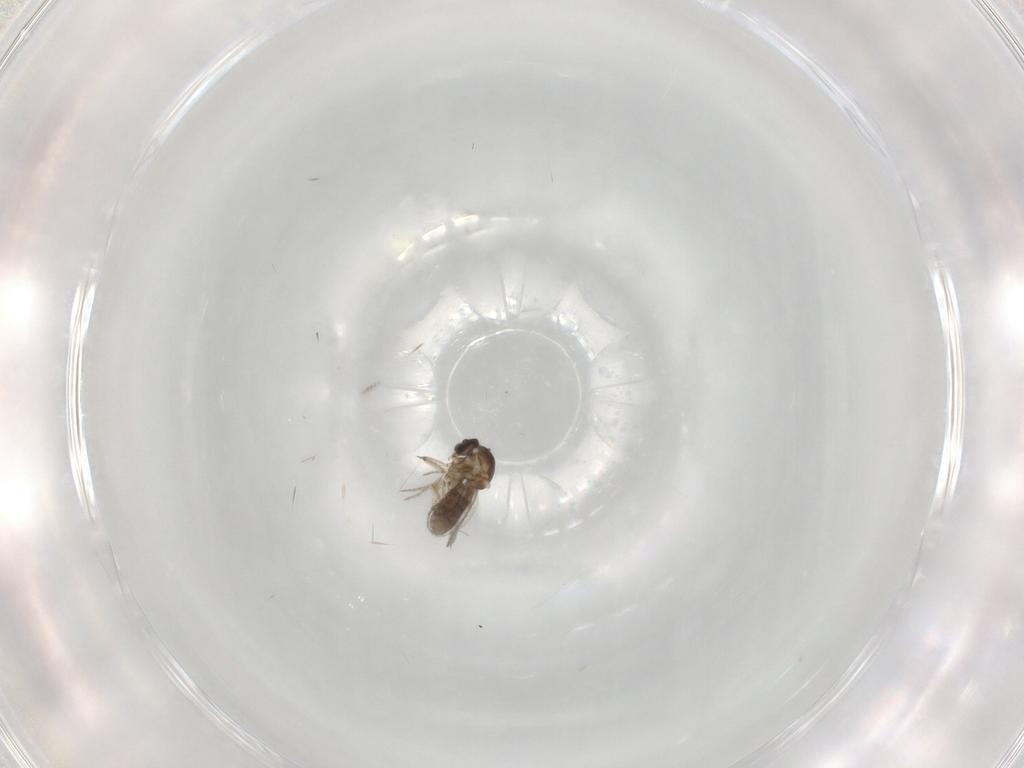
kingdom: Animalia
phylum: Arthropoda
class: Insecta
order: Diptera
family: Ceratopogonidae
